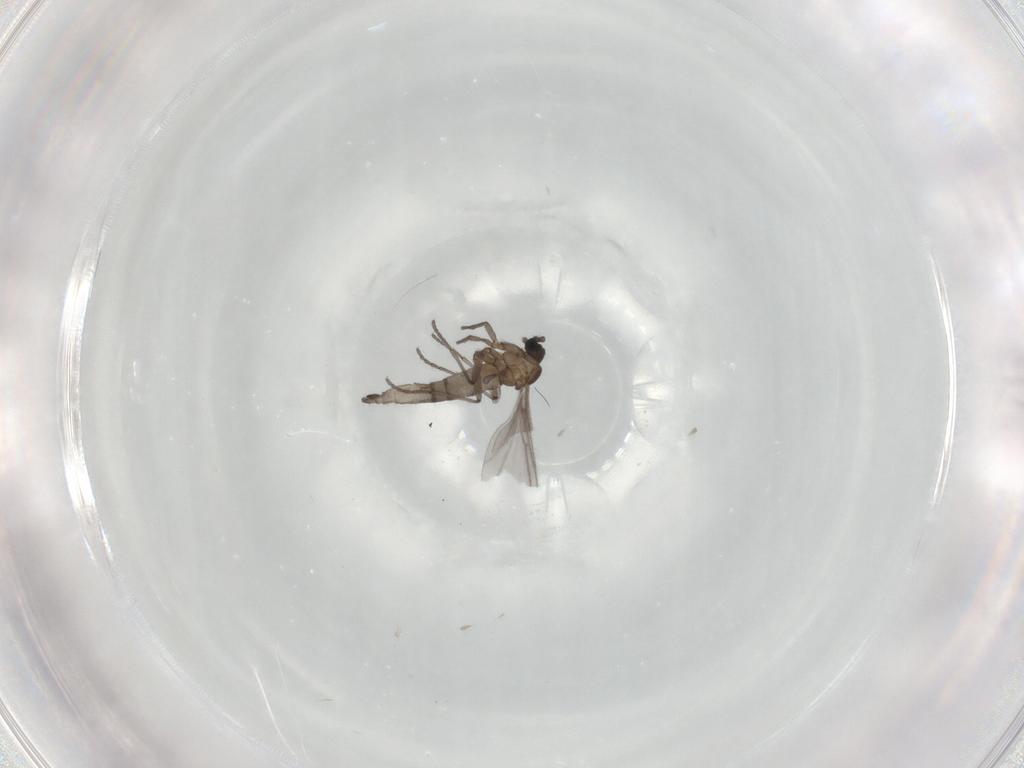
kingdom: Animalia
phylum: Arthropoda
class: Insecta
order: Diptera
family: Sciaridae
